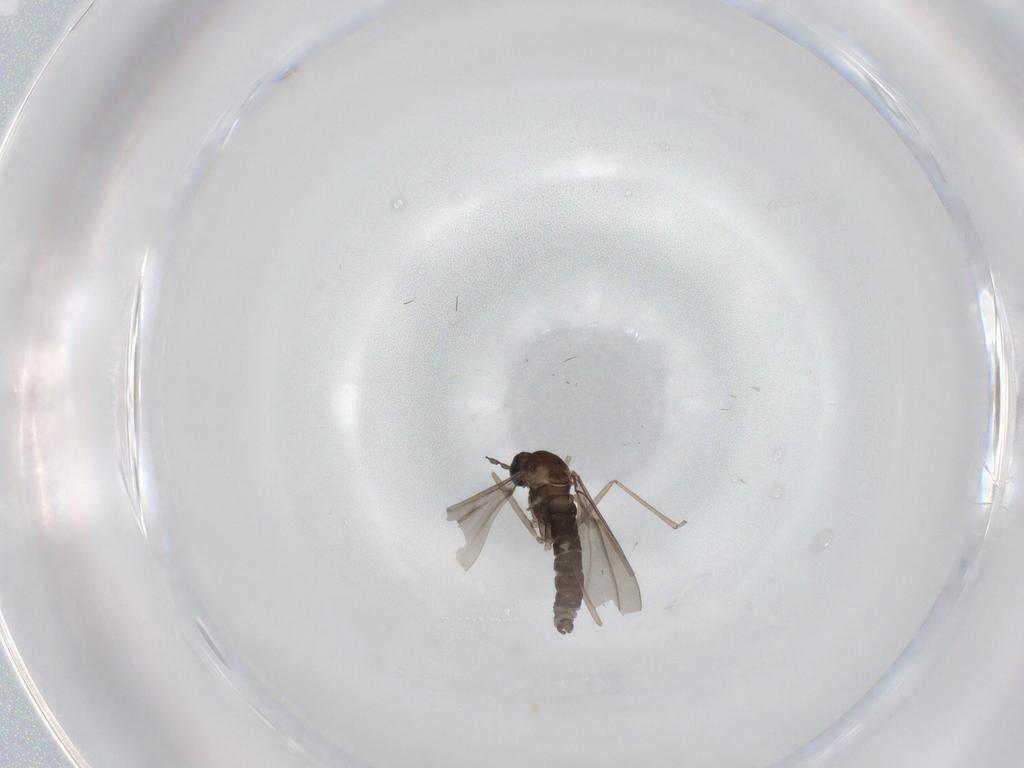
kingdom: Animalia
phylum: Arthropoda
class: Insecta
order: Diptera
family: Cecidomyiidae
